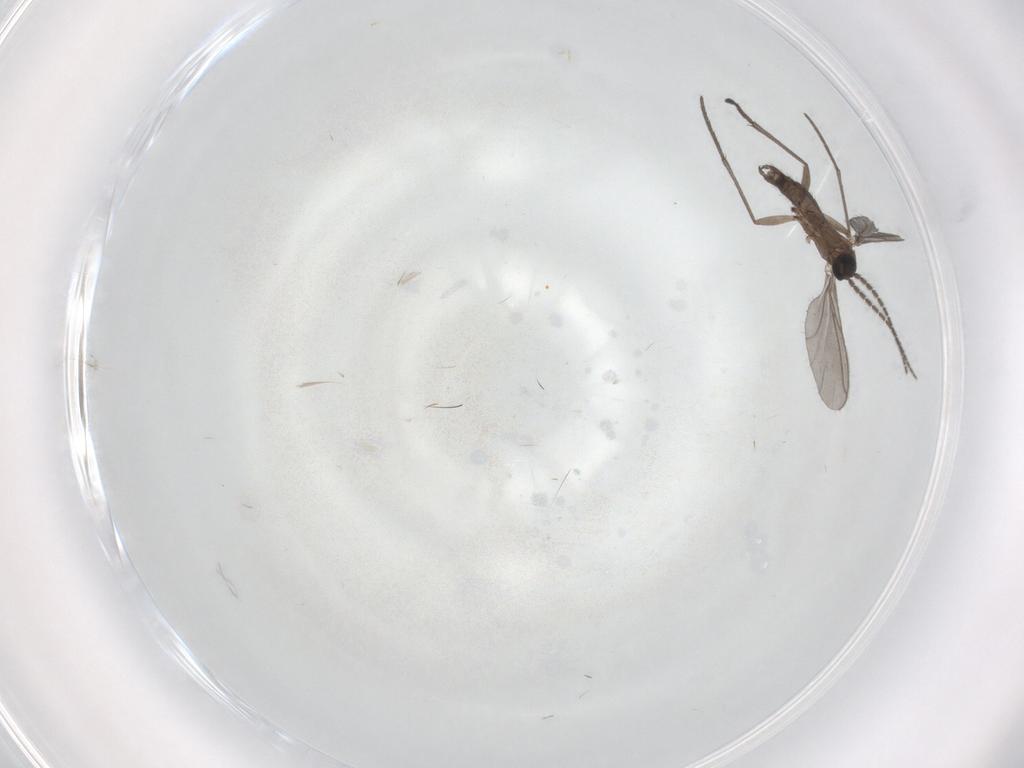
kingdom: Animalia
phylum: Arthropoda
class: Insecta
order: Diptera
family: Sciaridae
